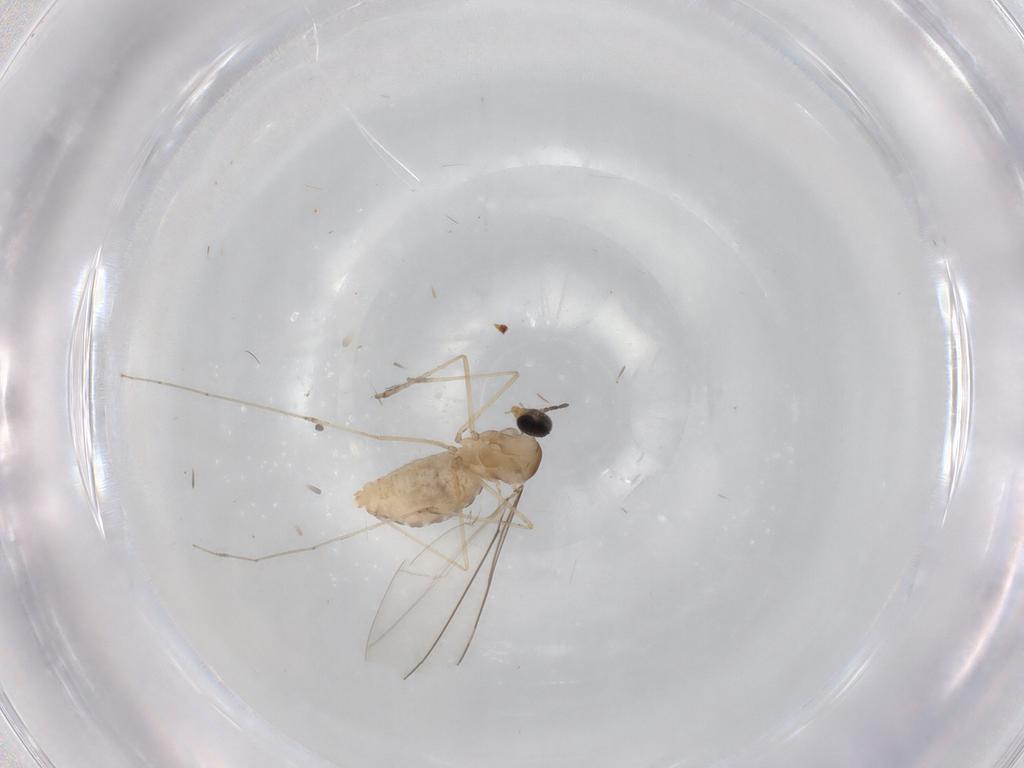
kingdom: Animalia
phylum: Arthropoda
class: Insecta
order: Diptera
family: Psychodidae
